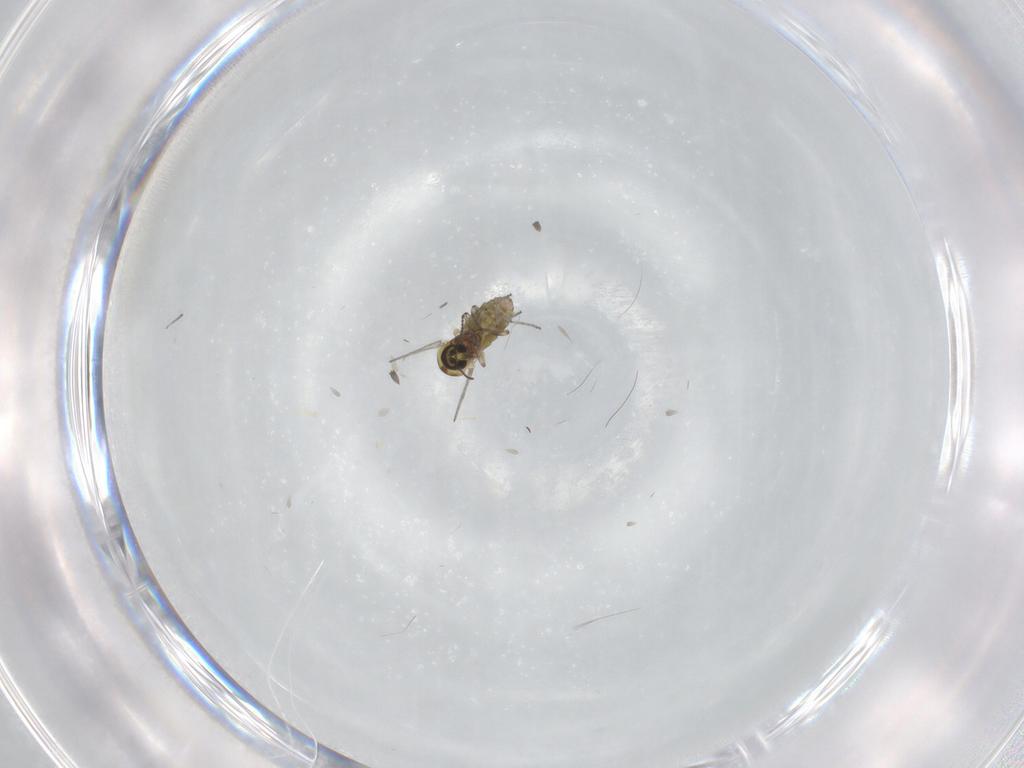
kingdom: Animalia
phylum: Arthropoda
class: Insecta
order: Diptera
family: Ceratopogonidae
